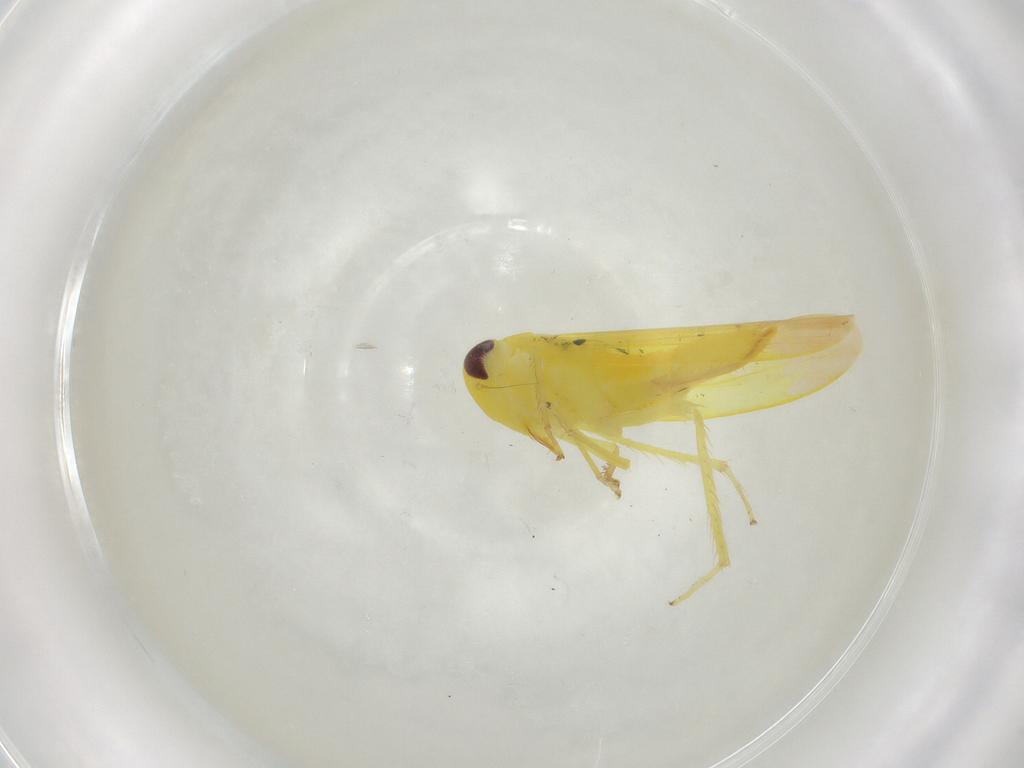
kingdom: Animalia
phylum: Arthropoda
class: Insecta
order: Hemiptera
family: Cicadellidae
